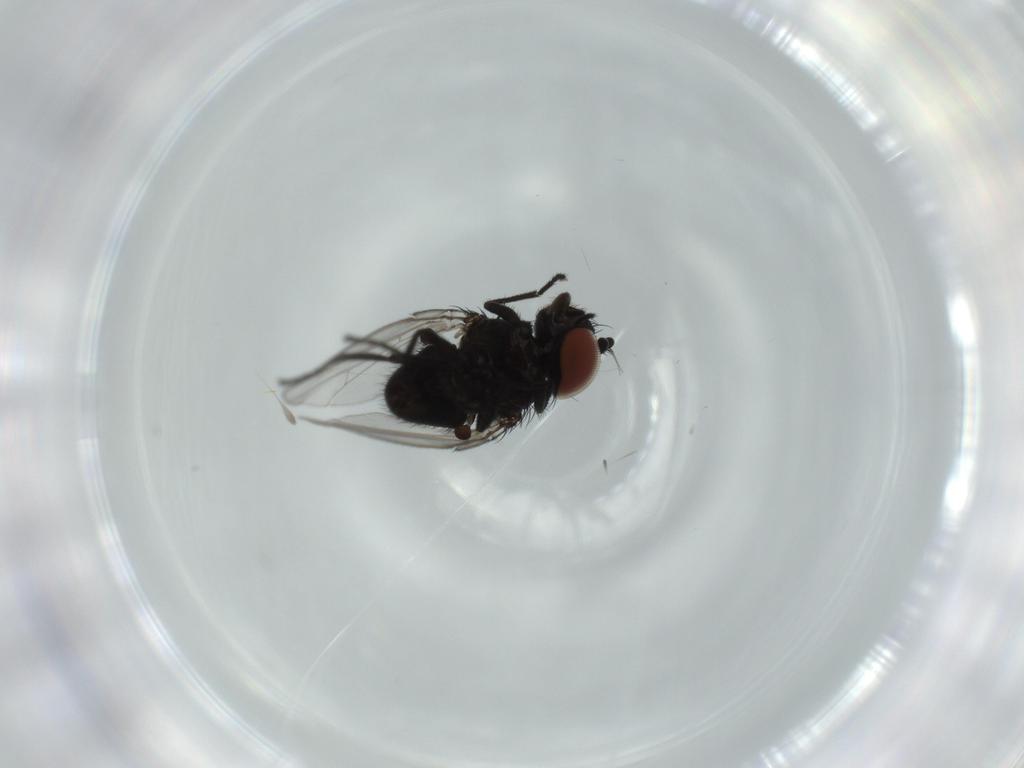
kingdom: Animalia
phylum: Arthropoda
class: Insecta
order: Diptera
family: Milichiidae
